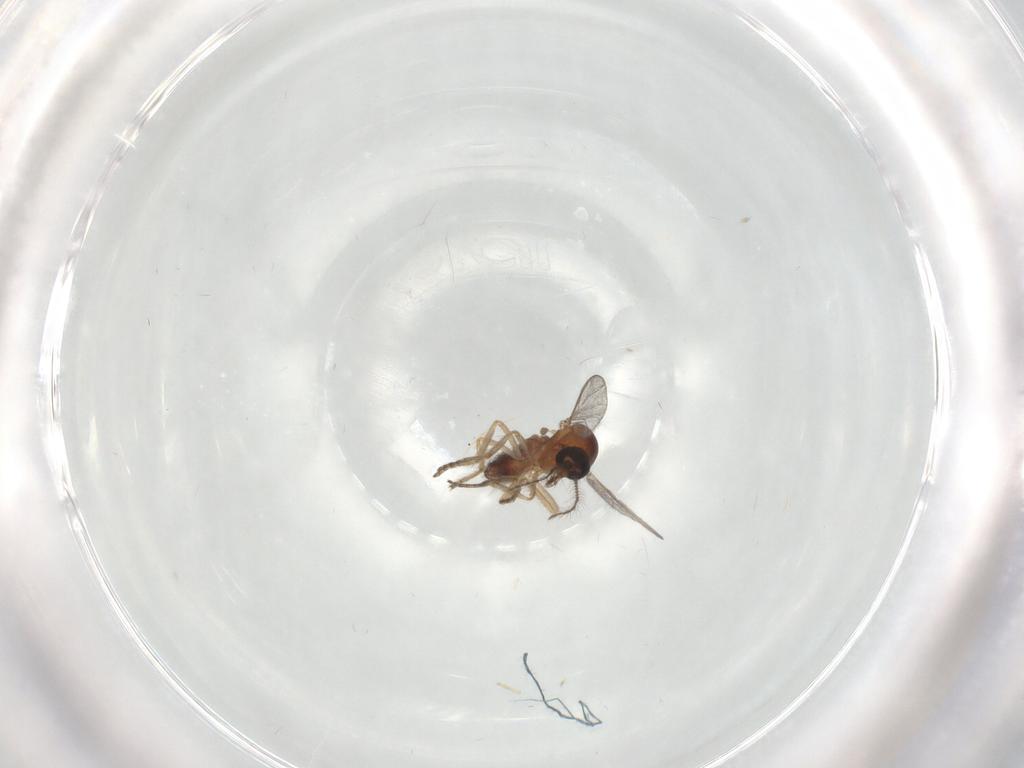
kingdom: Animalia
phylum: Arthropoda
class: Insecta
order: Diptera
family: Ceratopogonidae
